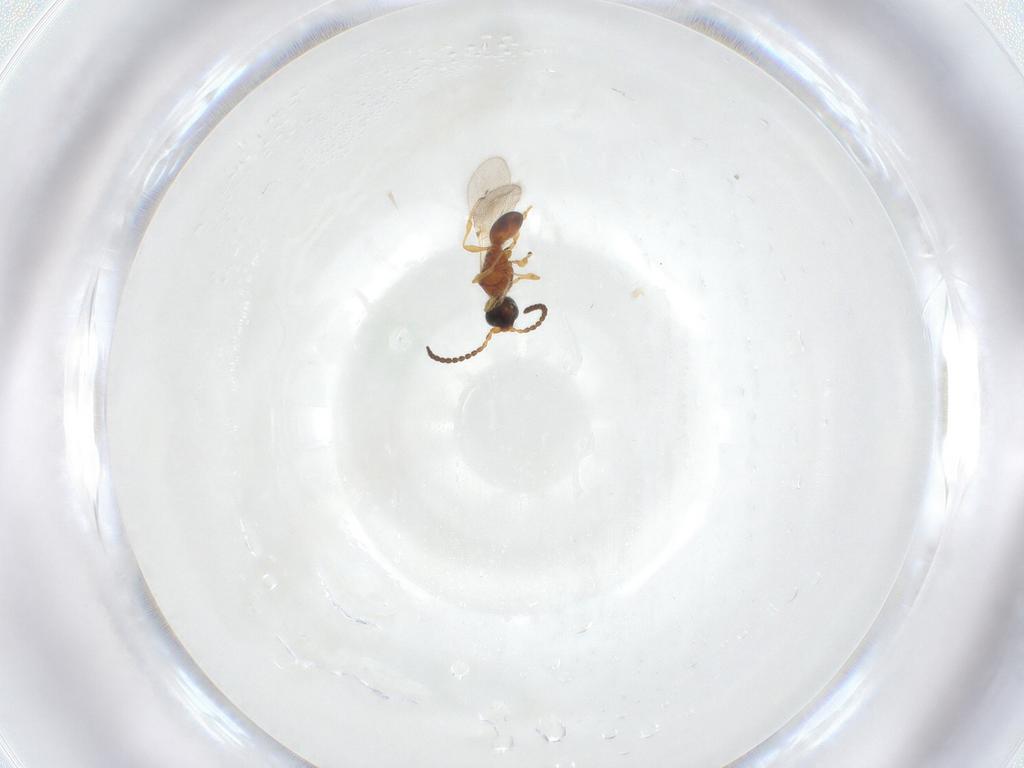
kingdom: Animalia
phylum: Arthropoda
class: Insecta
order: Hymenoptera
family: Diapriidae
